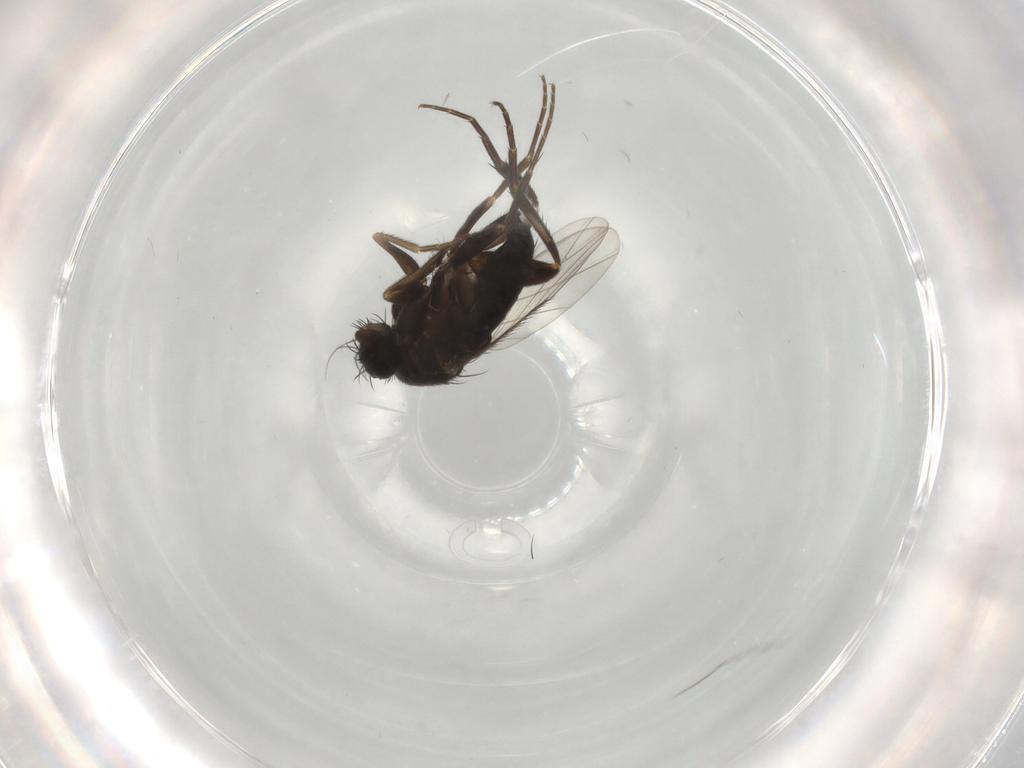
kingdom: Animalia
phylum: Arthropoda
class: Insecta
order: Diptera
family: Phoridae
